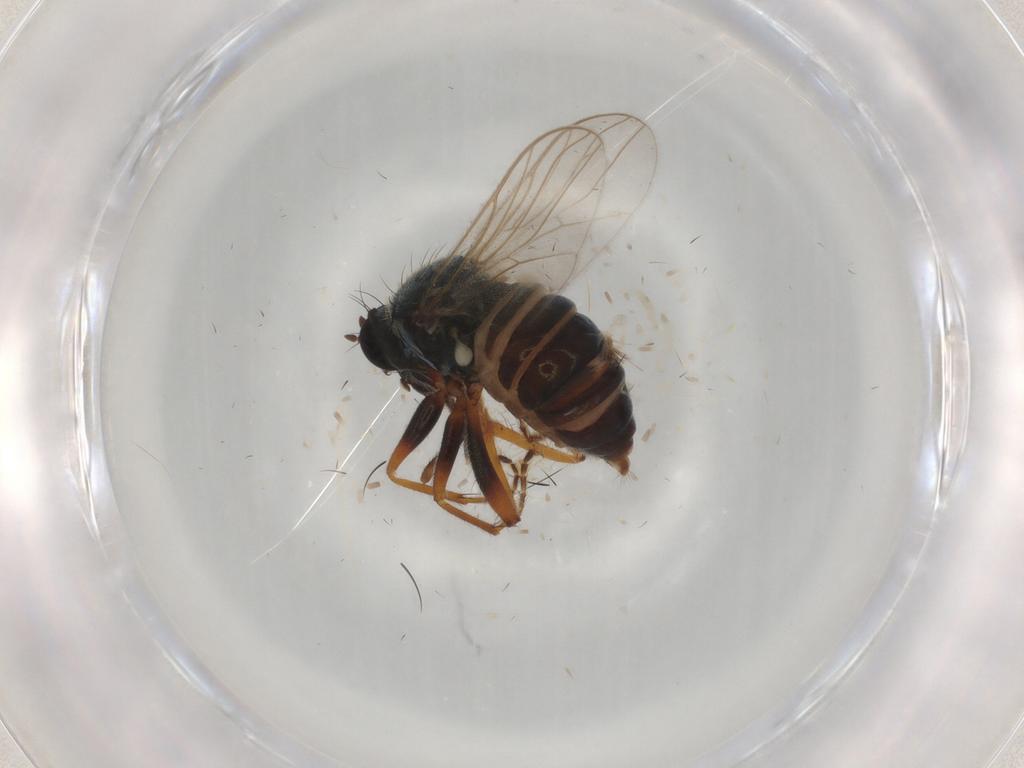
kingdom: Animalia
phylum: Arthropoda
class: Insecta
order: Diptera
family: Hybotidae
